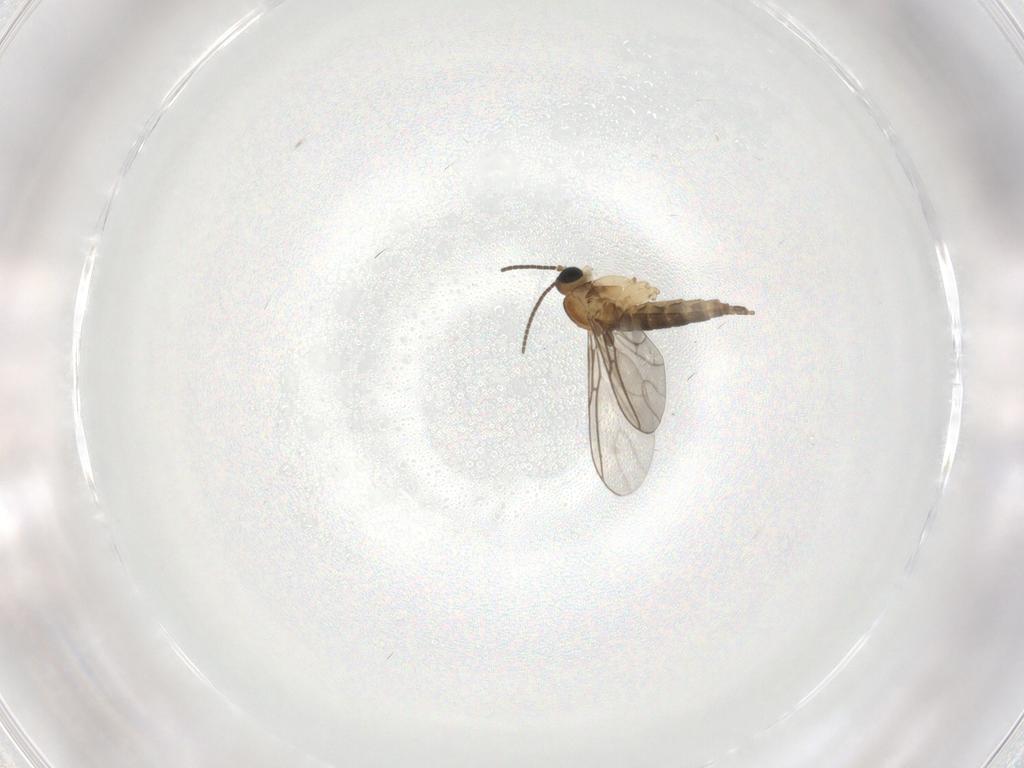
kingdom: Animalia
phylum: Arthropoda
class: Insecta
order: Diptera
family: Sciaridae
